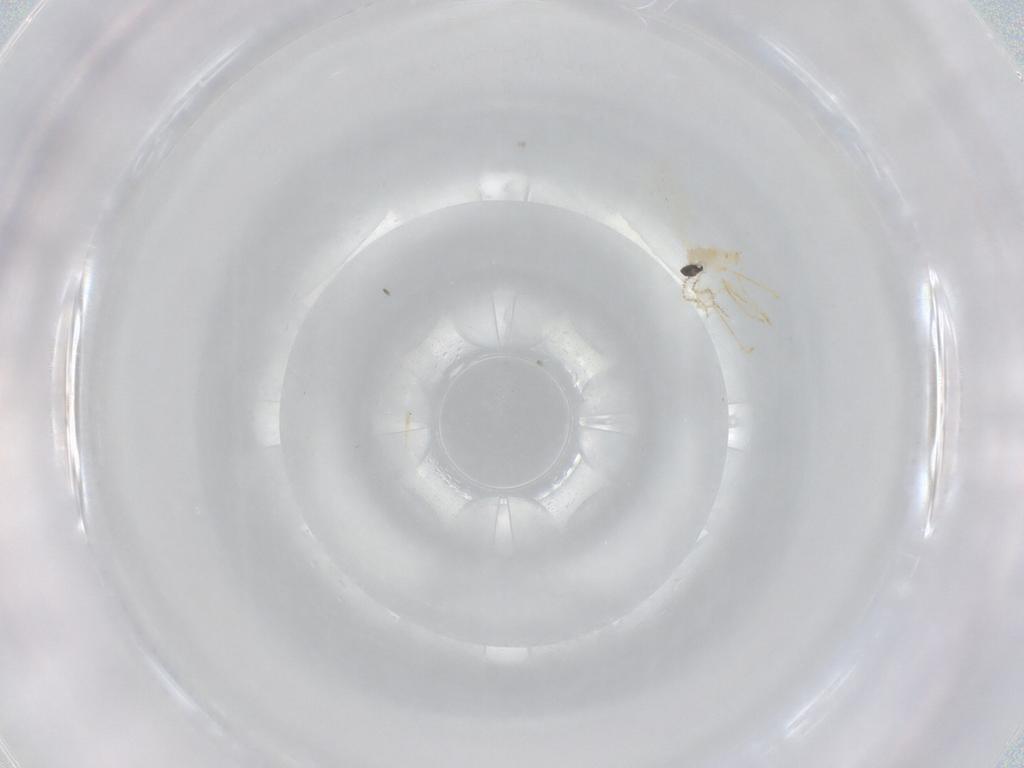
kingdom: Animalia
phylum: Arthropoda
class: Insecta
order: Diptera
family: Cecidomyiidae
